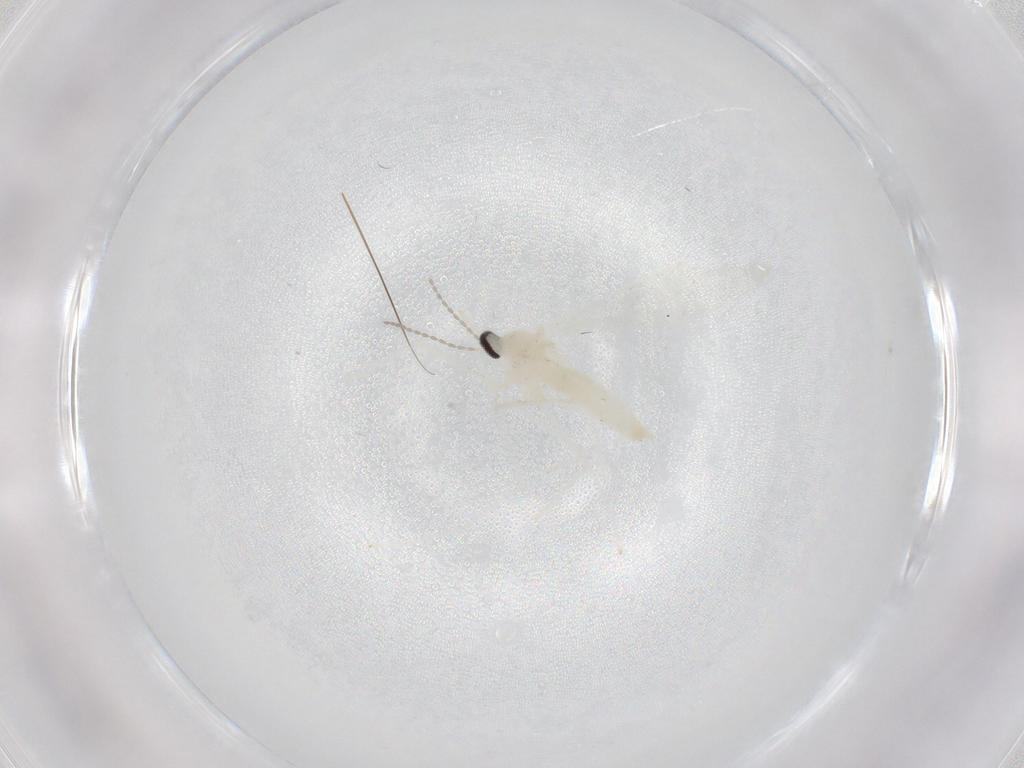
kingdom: Animalia
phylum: Arthropoda
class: Insecta
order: Diptera
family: Cecidomyiidae
